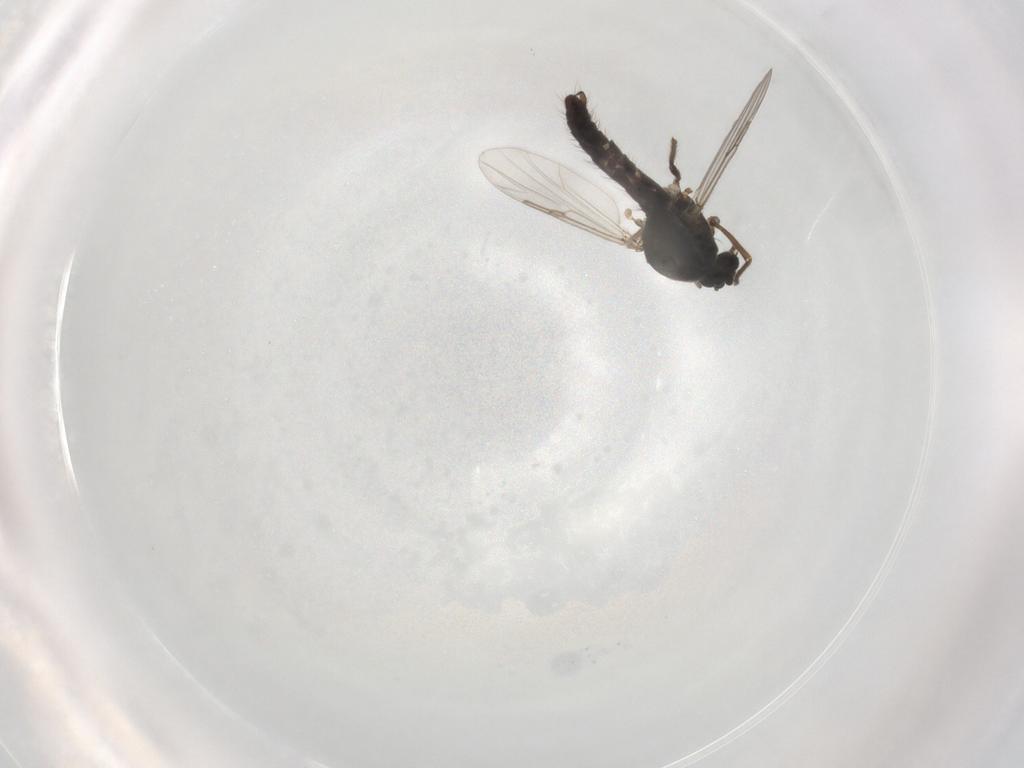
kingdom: Animalia
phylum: Arthropoda
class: Insecta
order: Diptera
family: Ceratopogonidae
